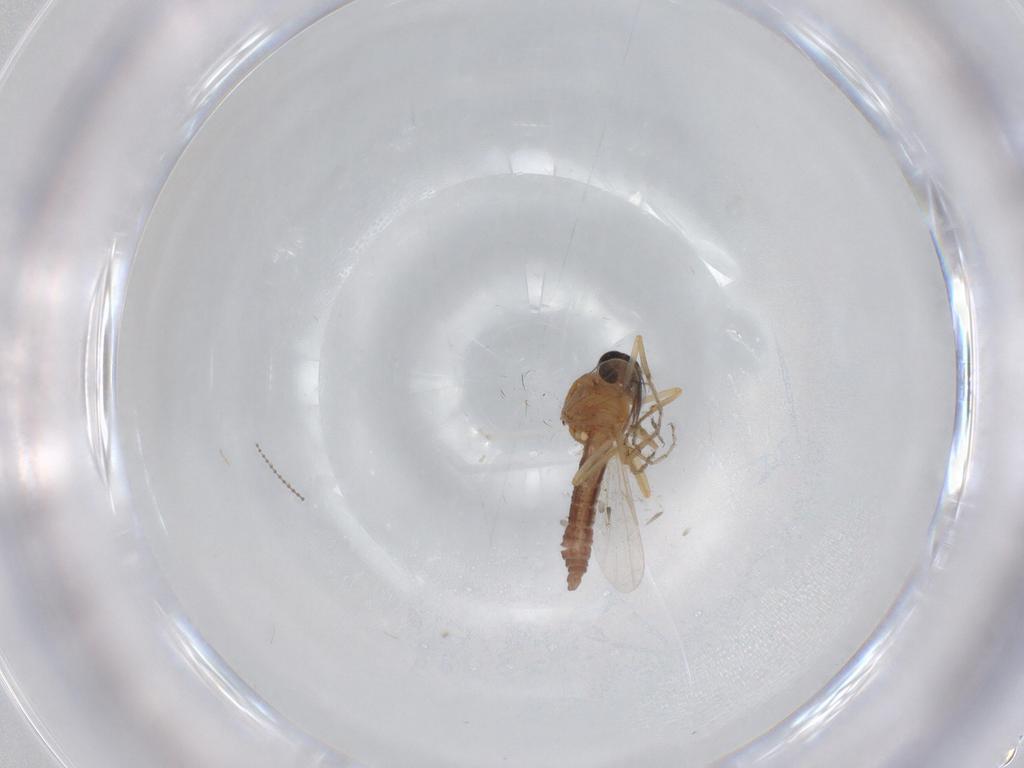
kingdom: Animalia
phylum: Arthropoda
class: Insecta
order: Diptera
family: Ceratopogonidae
